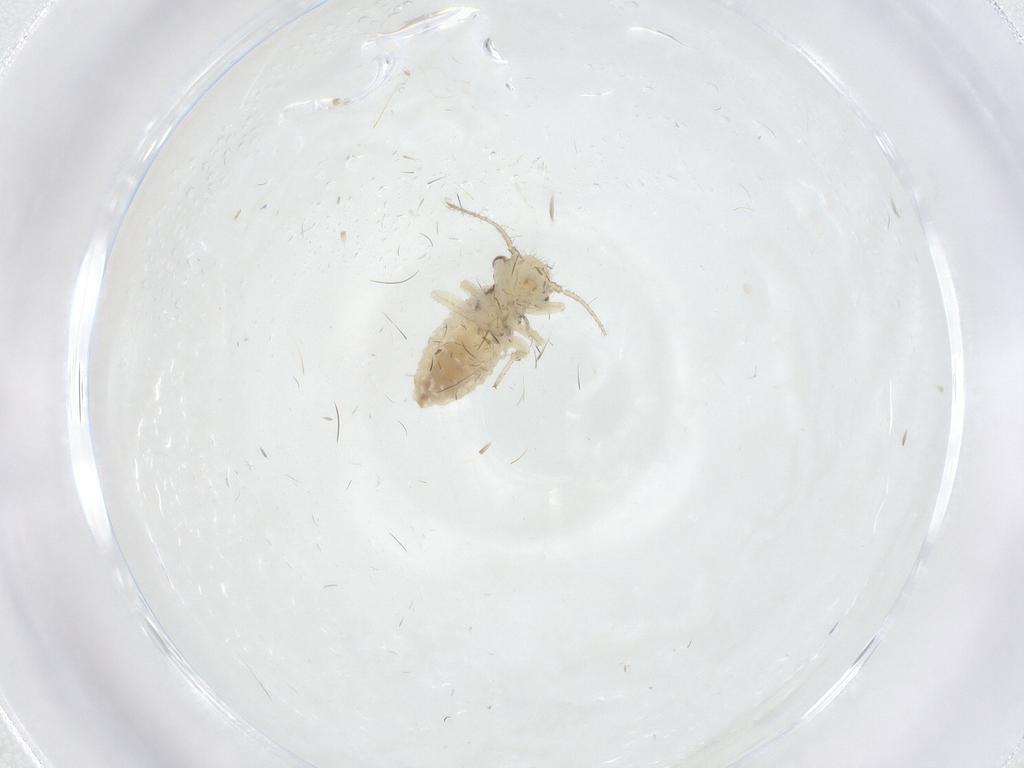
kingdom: Animalia
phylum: Arthropoda
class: Insecta
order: Psocodea
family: Pseudocaeciliidae
